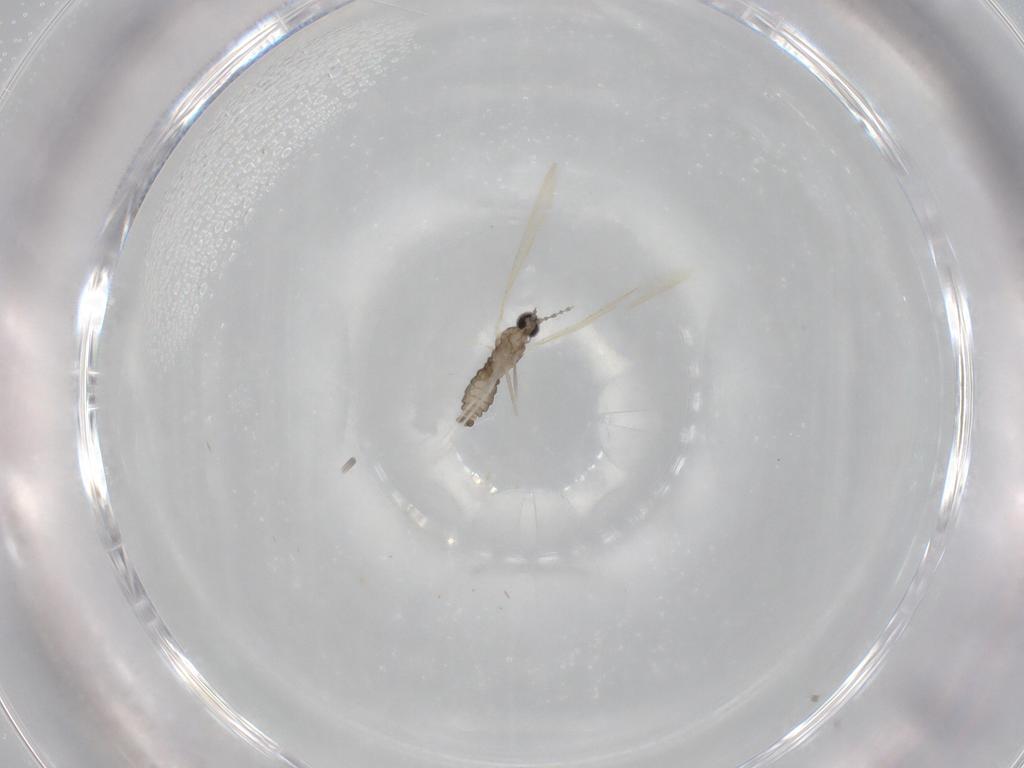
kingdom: Animalia
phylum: Arthropoda
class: Insecta
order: Diptera
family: Cecidomyiidae
